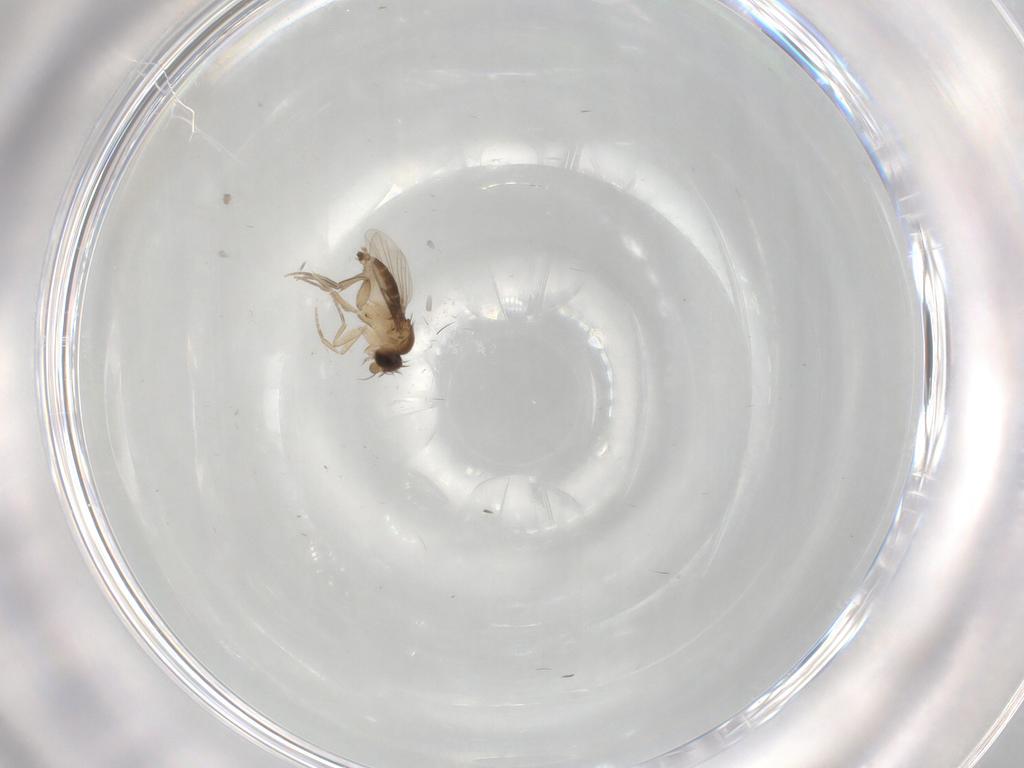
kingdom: Animalia
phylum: Arthropoda
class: Insecta
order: Diptera
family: Phoridae
